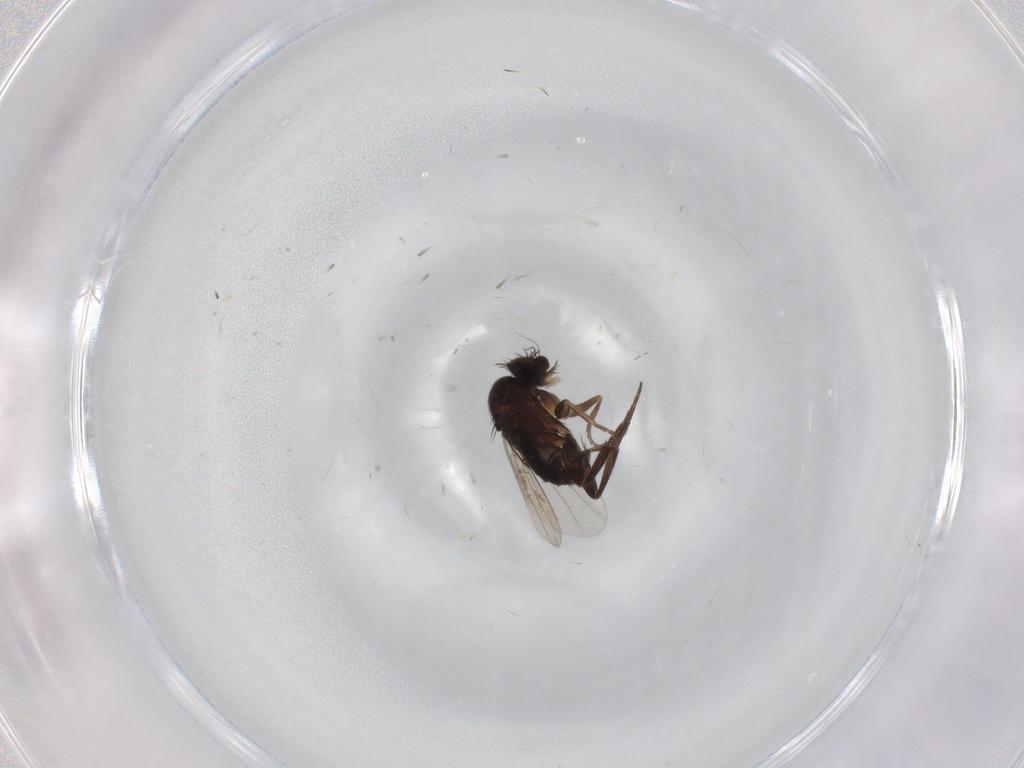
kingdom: Animalia
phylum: Arthropoda
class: Insecta
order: Diptera
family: Phoridae
